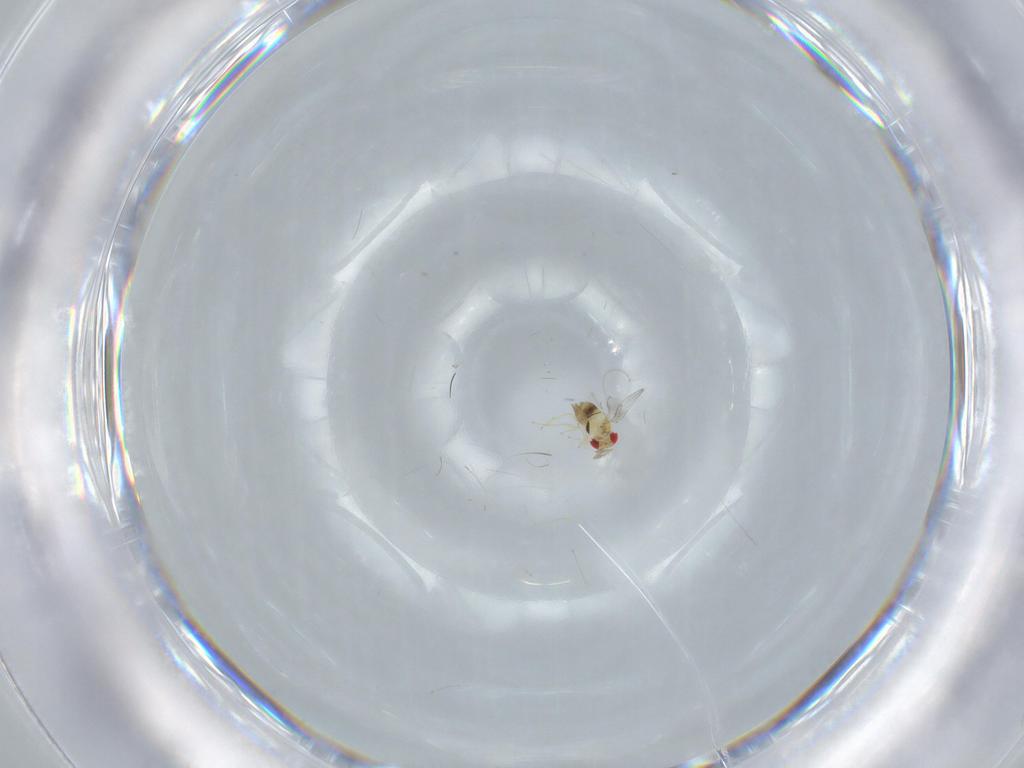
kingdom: Animalia
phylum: Arthropoda
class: Insecta
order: Hymenoptera
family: Trichogrammatidae
